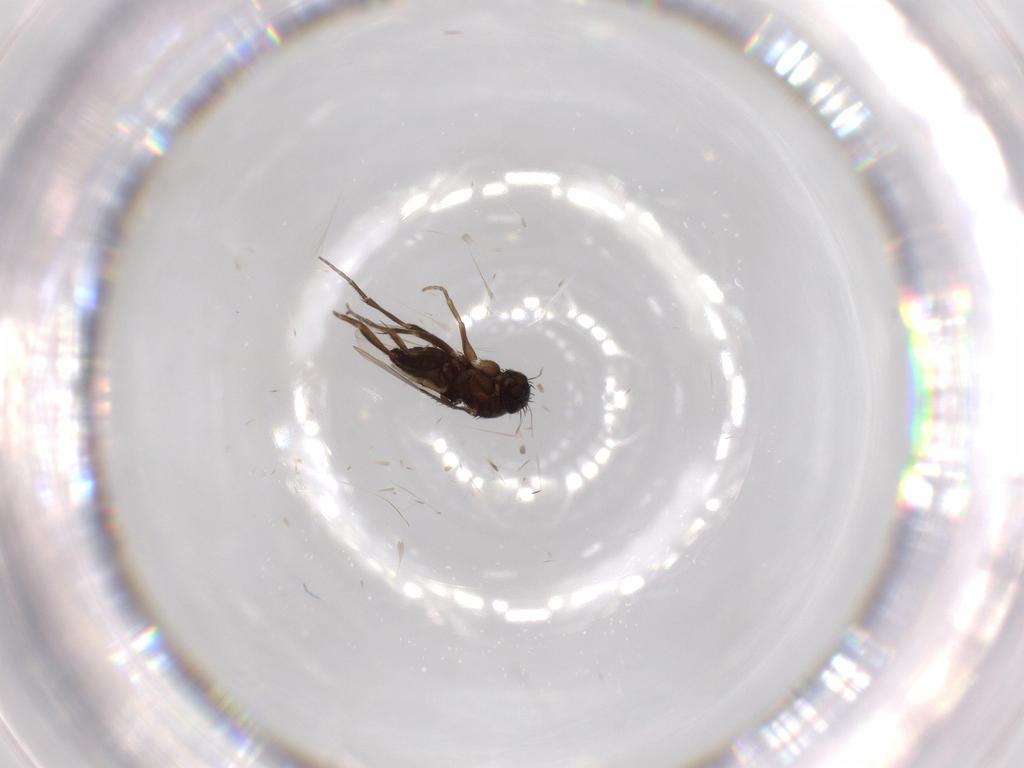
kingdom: Animalia
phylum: Arthropoda
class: Insecta
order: Diptera
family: Phoridae
